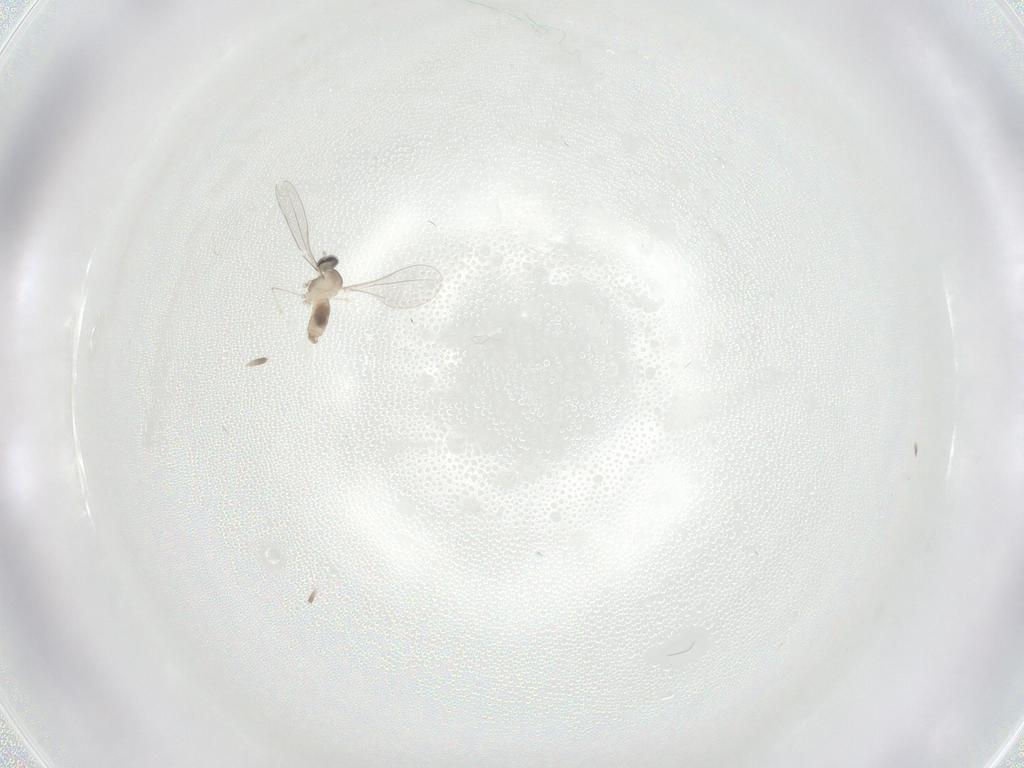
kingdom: Animalia
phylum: Arthropoda
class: Insecta
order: Diptera
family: Cecidomyiidae
